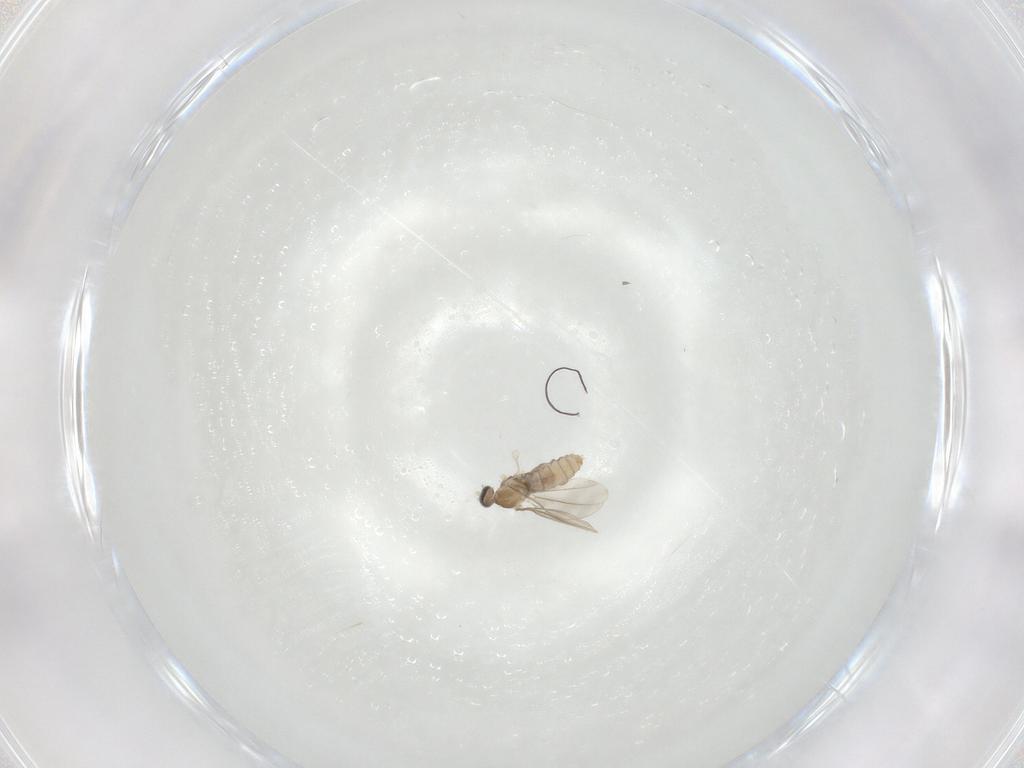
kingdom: Animalia
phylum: Arthropoda
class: Insecta
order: Diptera
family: Cecidomyiidae
